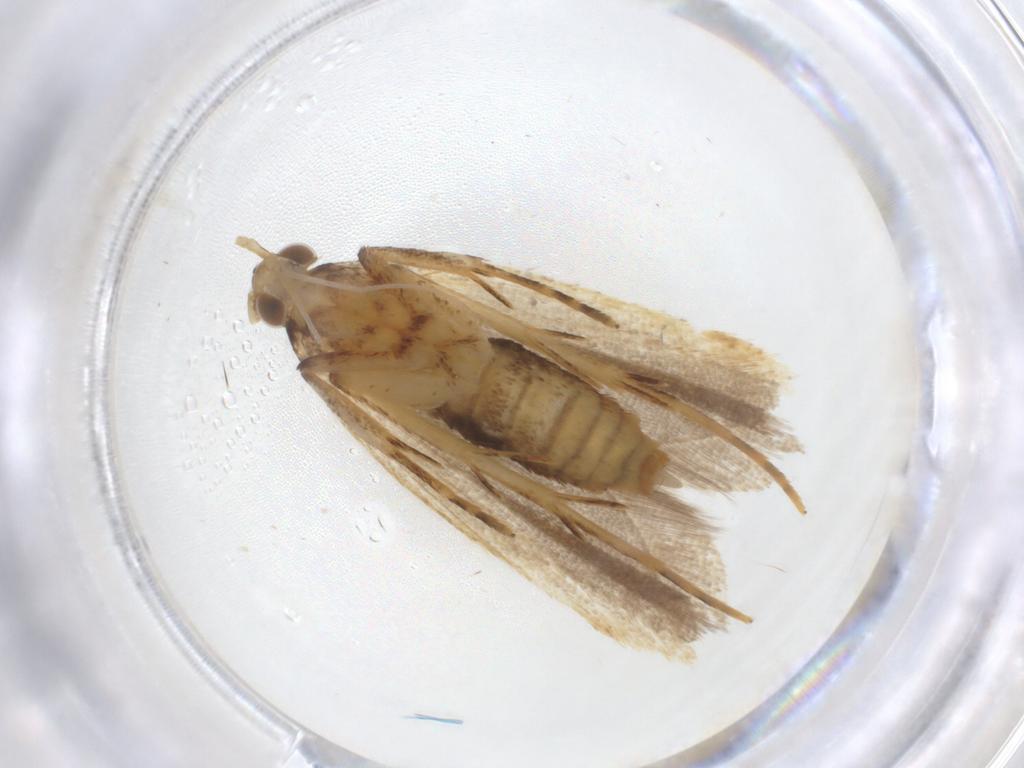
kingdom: Animalia
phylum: Arthropoda
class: Insecta
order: Lepidoptera
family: Lecithoceridae
